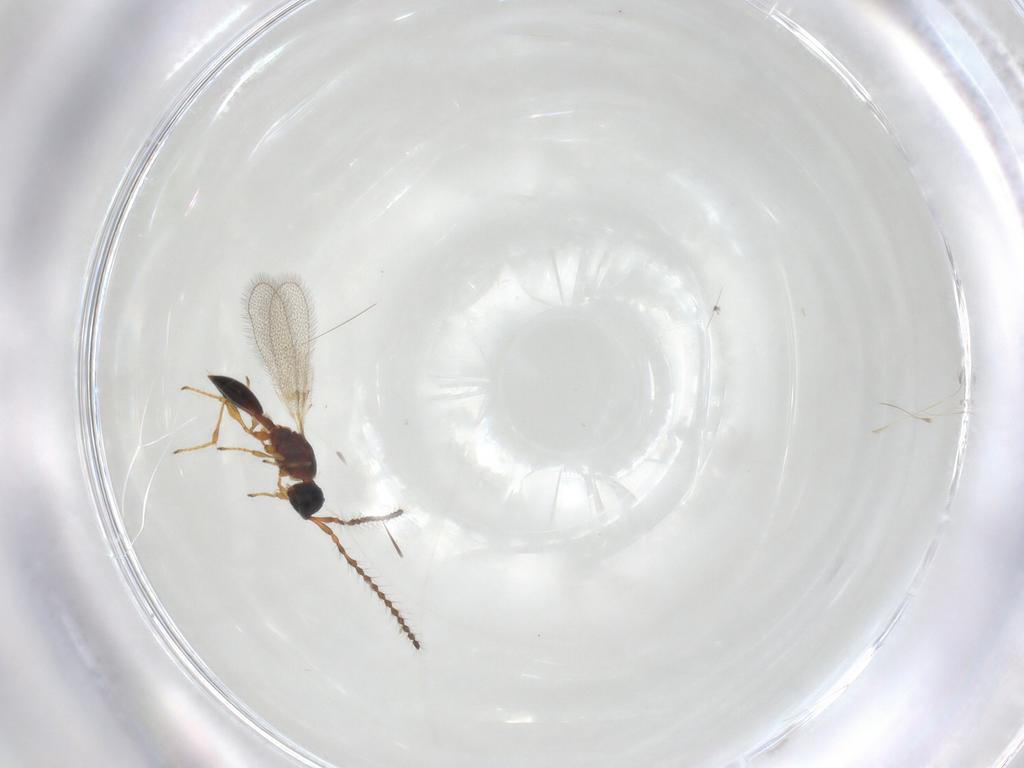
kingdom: Animalia
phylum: Arthropoda
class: Insecta
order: Hymenoptera
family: Diapriidae
